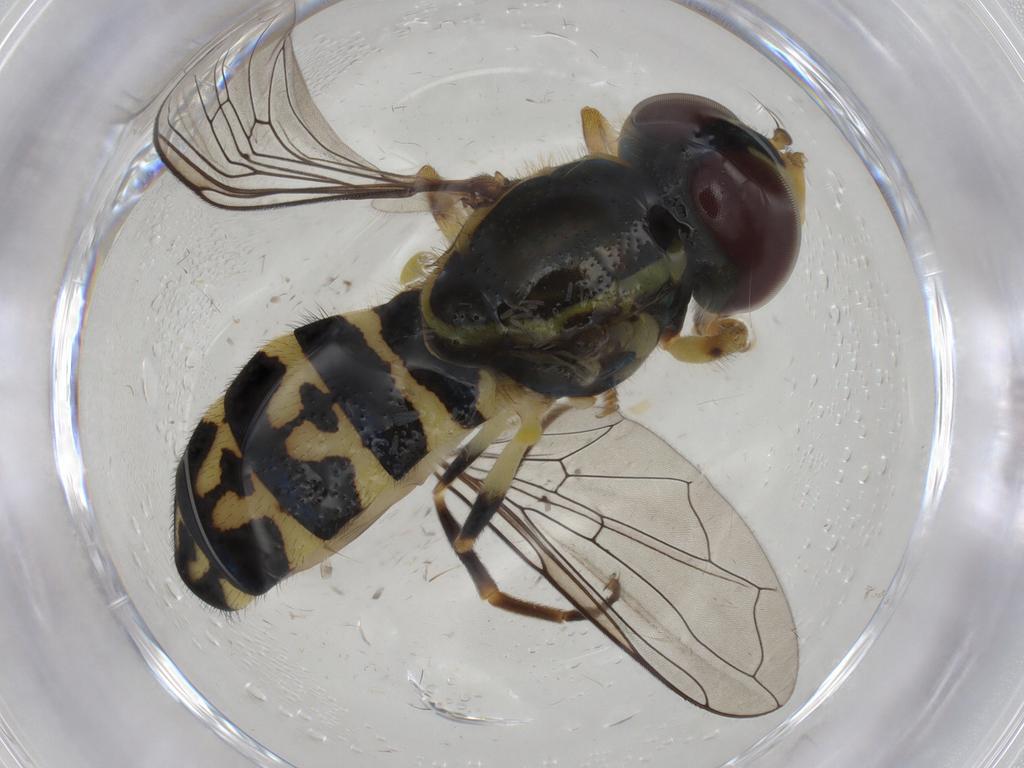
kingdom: Animalia
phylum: Arthropoda
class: Insecta
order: Diptera
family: Syrphidae
